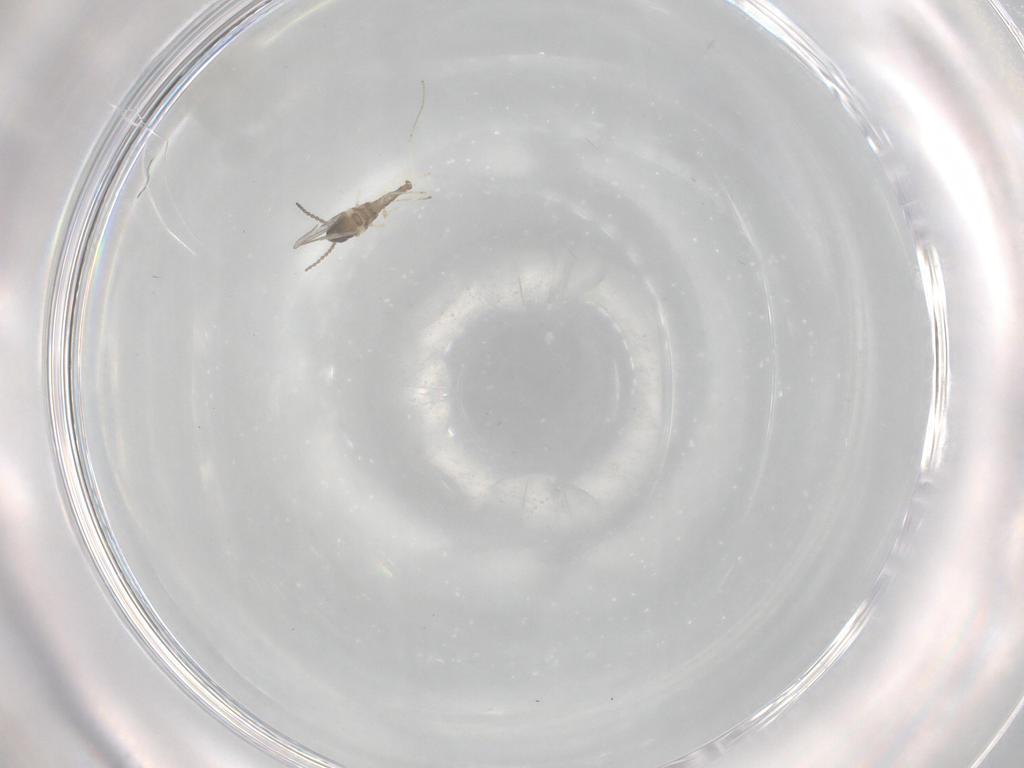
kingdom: Animalia
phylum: Arthropoda
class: Insecta
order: Diptera
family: Cecidomyiidae
